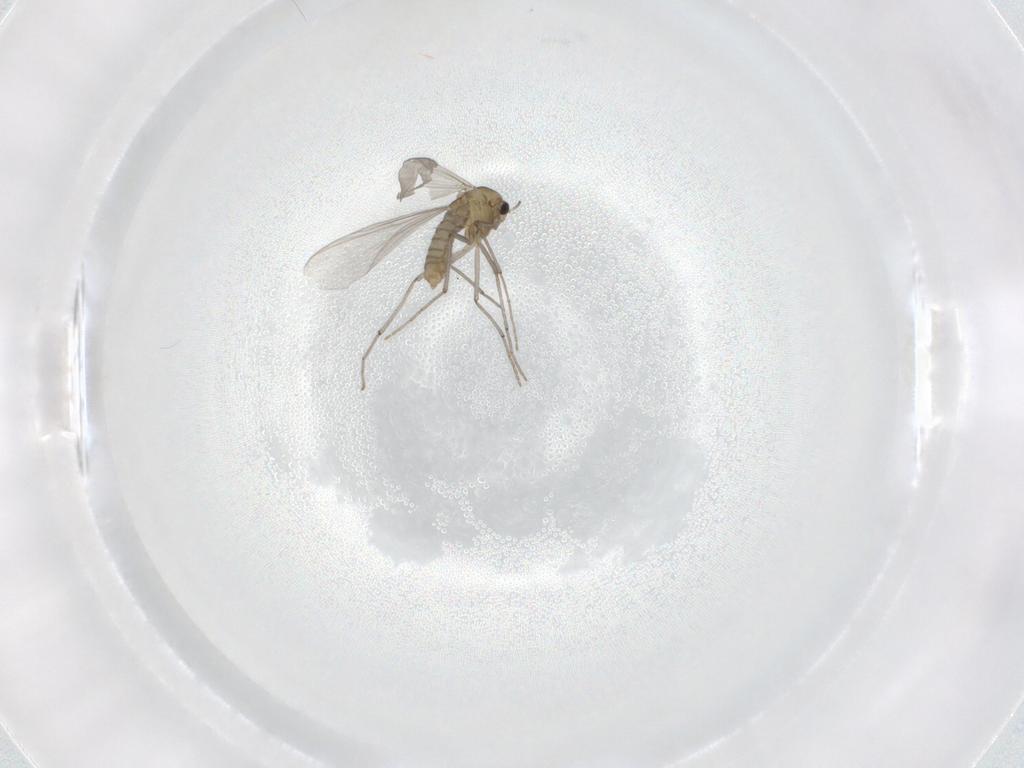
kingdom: Animalia
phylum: Arthropoda
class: Insecta
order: Diptera
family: Chironomidae
